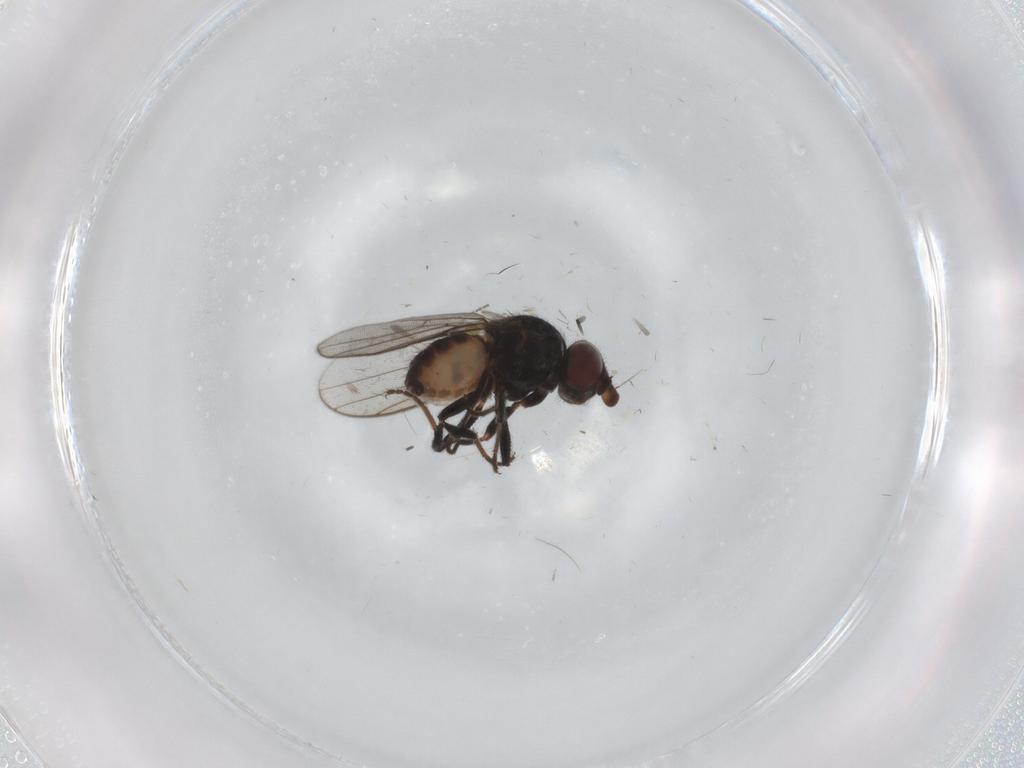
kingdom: Animalia
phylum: Arthropoda
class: Insecta
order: Diptera
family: Chloropidae
